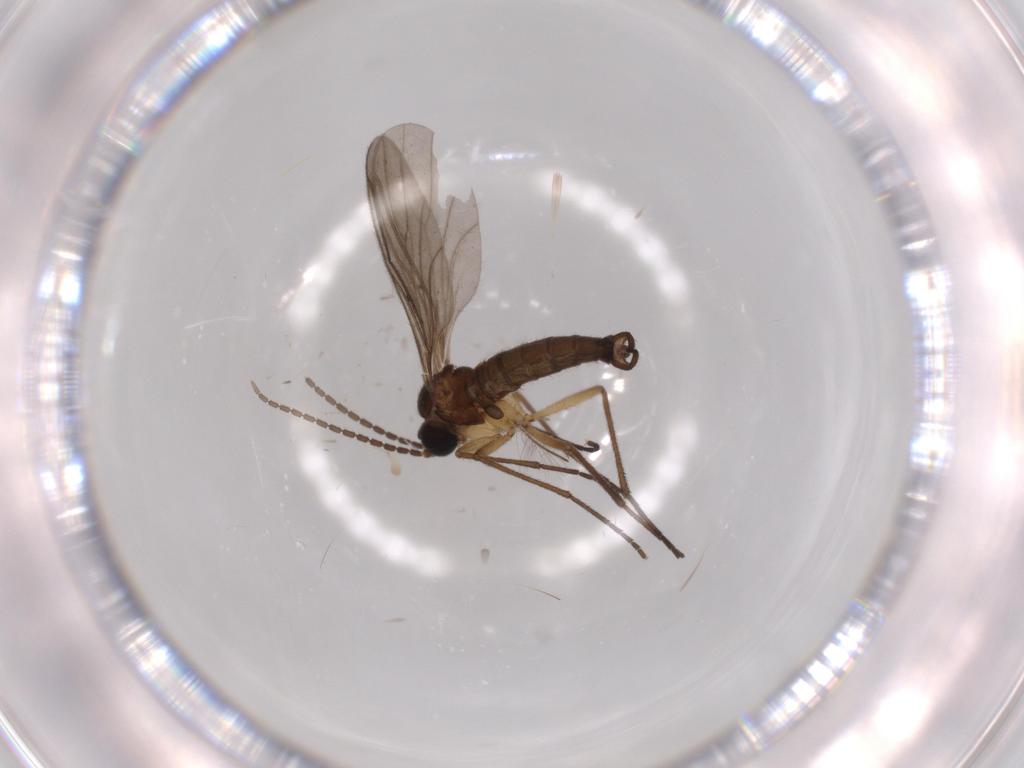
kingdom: Animalia
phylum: Arthropoda
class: Insecta
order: Diptera
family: Chironomidae
